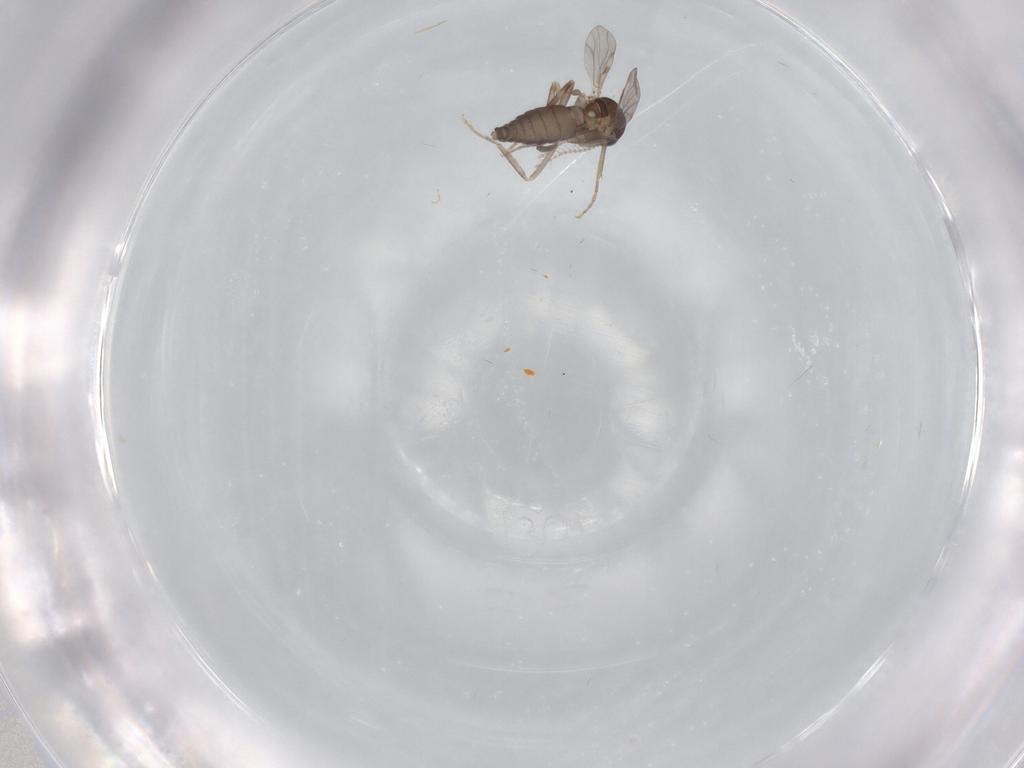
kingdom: Animalia
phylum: Arthropoda
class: Insecta
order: Diptera
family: Ceratopogonidae
